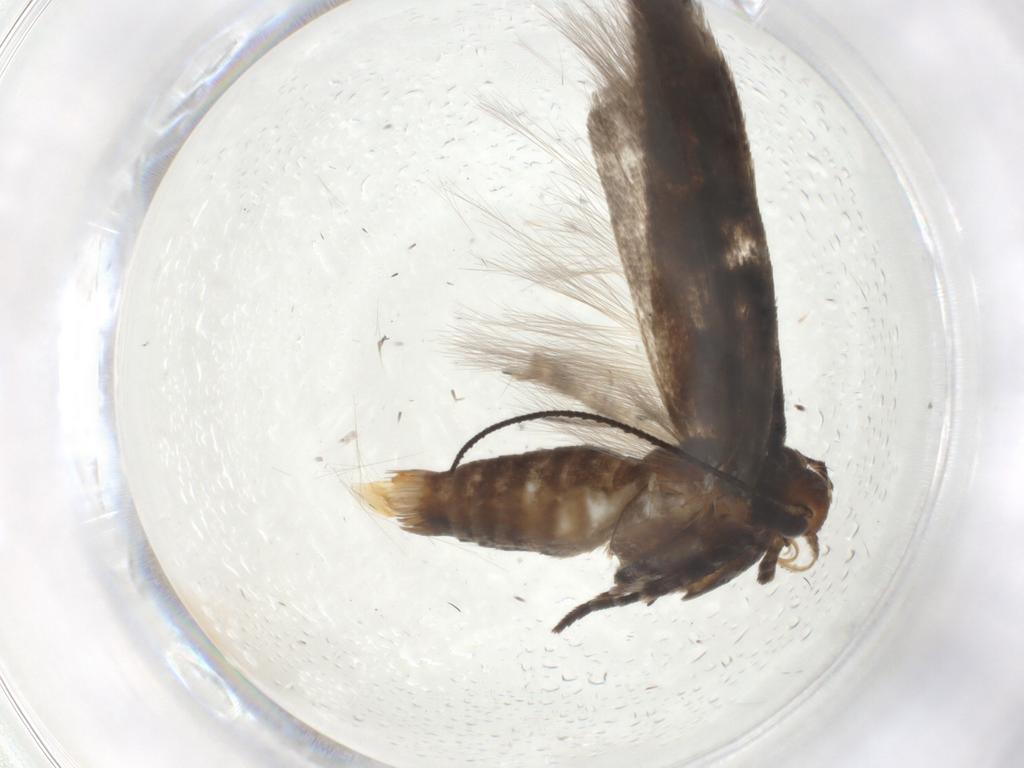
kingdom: Animalia
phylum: Arthropoda
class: Insecta
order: Lepidoptera
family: Gelechiidae
